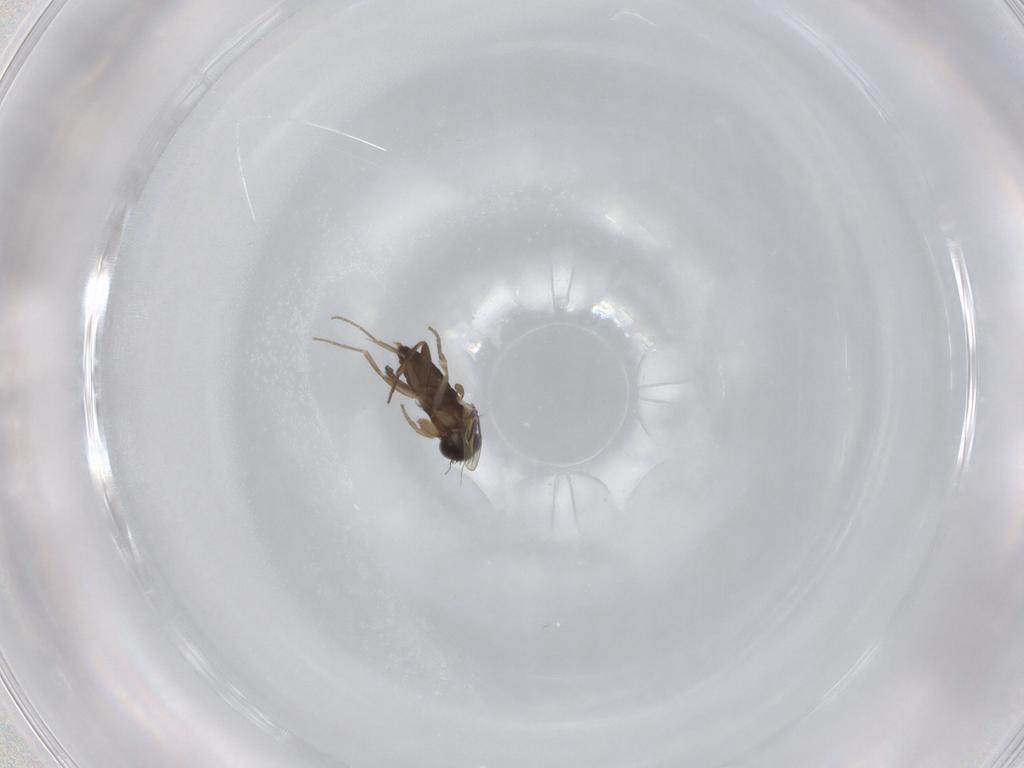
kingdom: Animalia
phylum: Arthropoda
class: Insecta
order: Diptera
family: Phoridae
